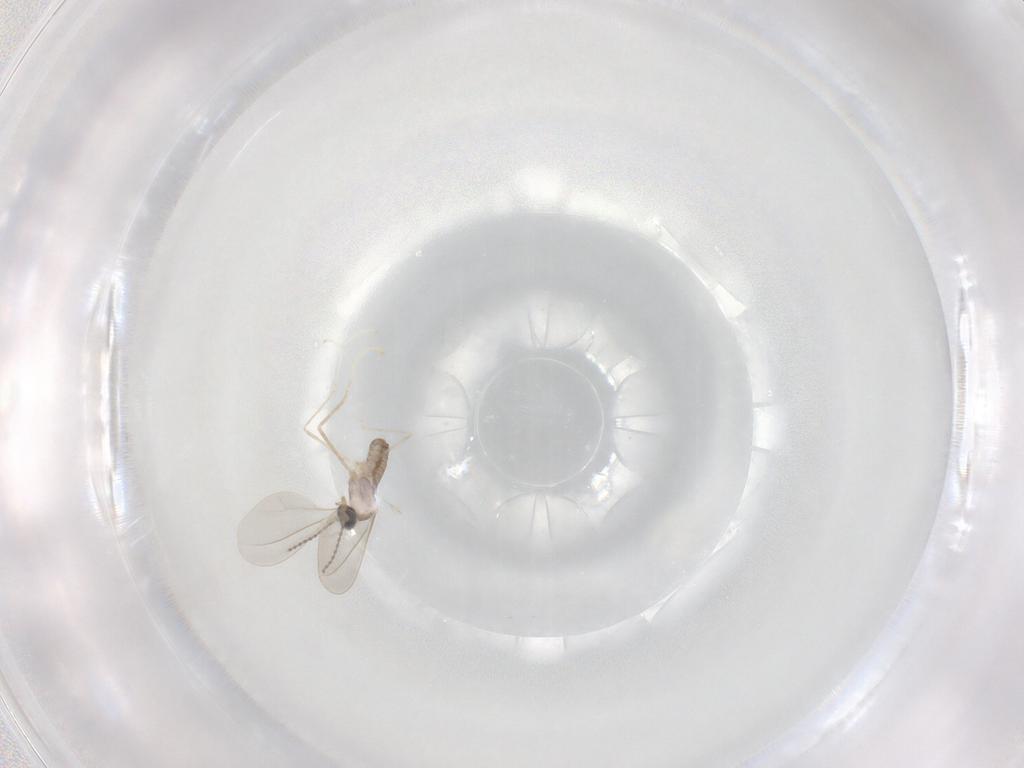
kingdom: Animalia
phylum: Arthropoda
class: Insecta
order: Diptera
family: Cecidomyiidae
